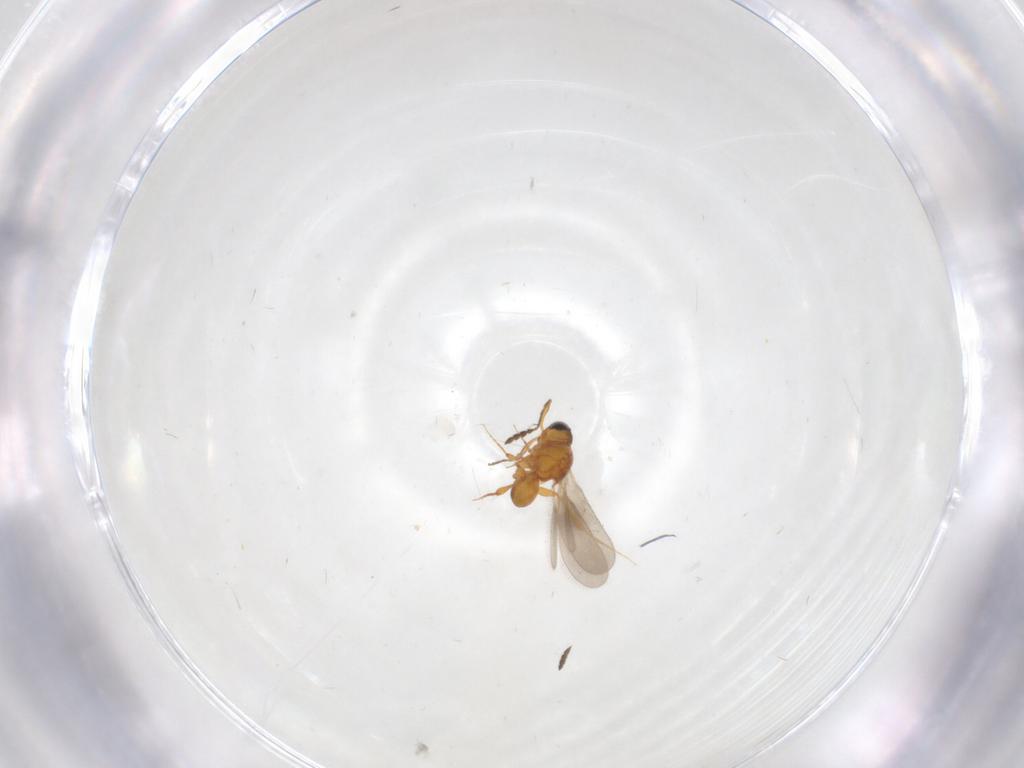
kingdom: Animalia
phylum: Arthropoda
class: Insecta
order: Hymenoptera
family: Platygastridae
